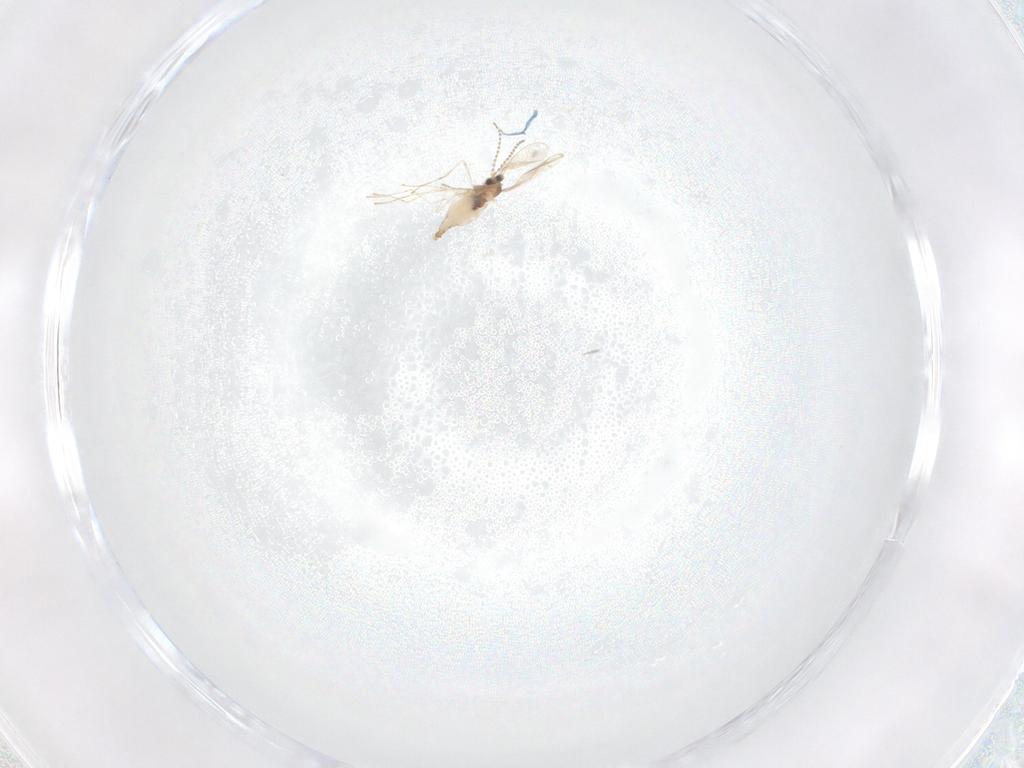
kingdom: Animalia
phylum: Arthropoda
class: Insecta
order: Diptera
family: Cecidomyiidae
